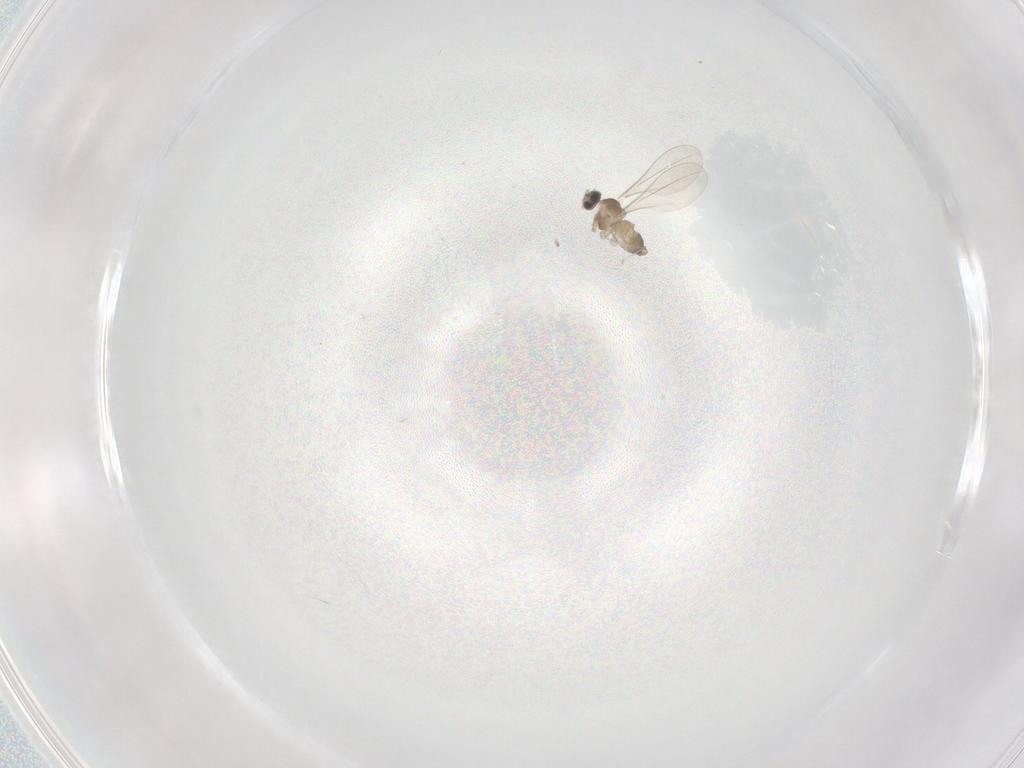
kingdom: Animalia
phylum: Arthropoda
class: Insecta
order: Diptera
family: Cecidomyiidae
